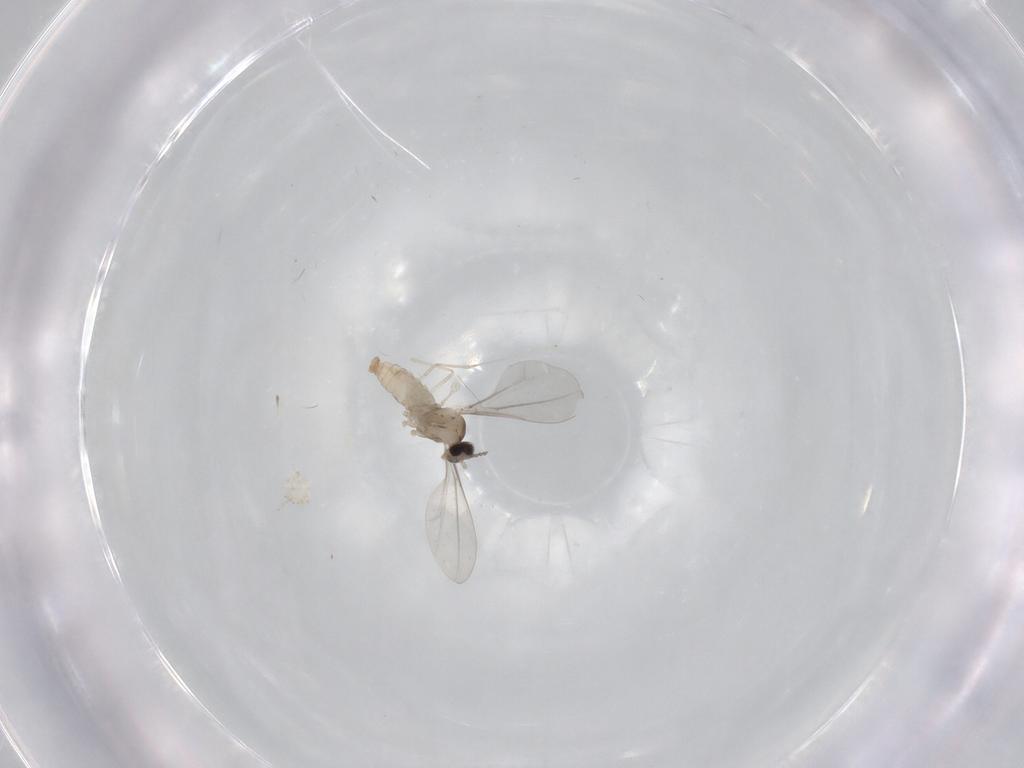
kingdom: Animalia
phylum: Arthropoda
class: Insecta
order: Diptera
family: Cecidomyiidae
